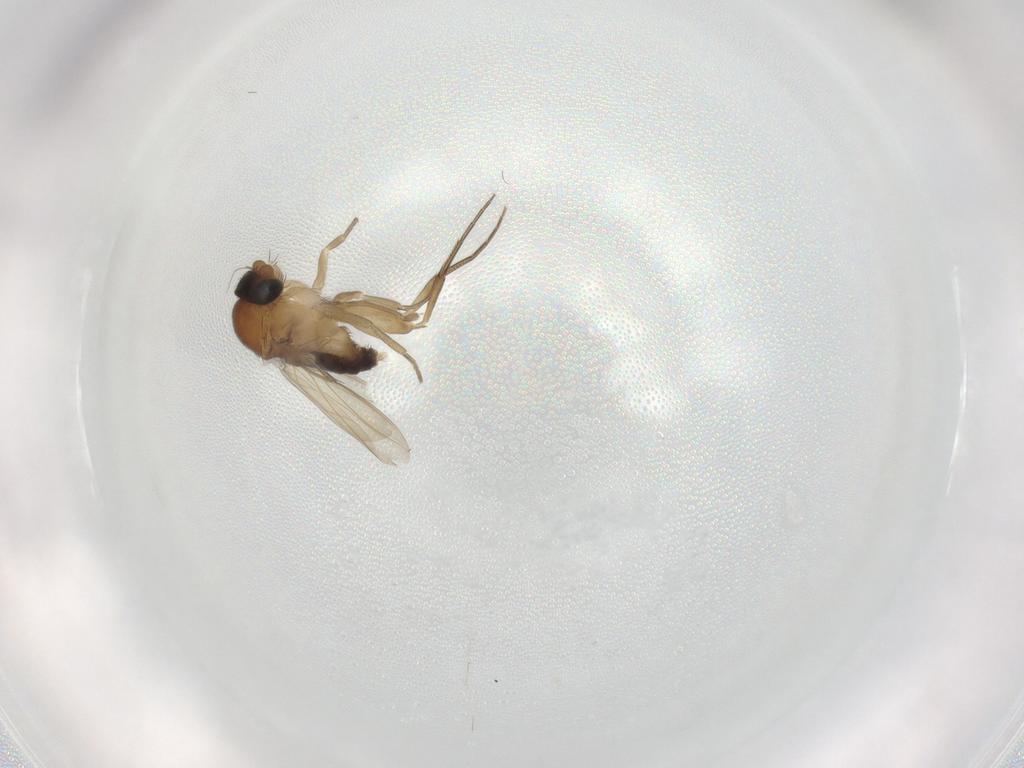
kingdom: Animalia
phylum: Arthropoda
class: Insecta
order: Diptera
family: Phoridae
